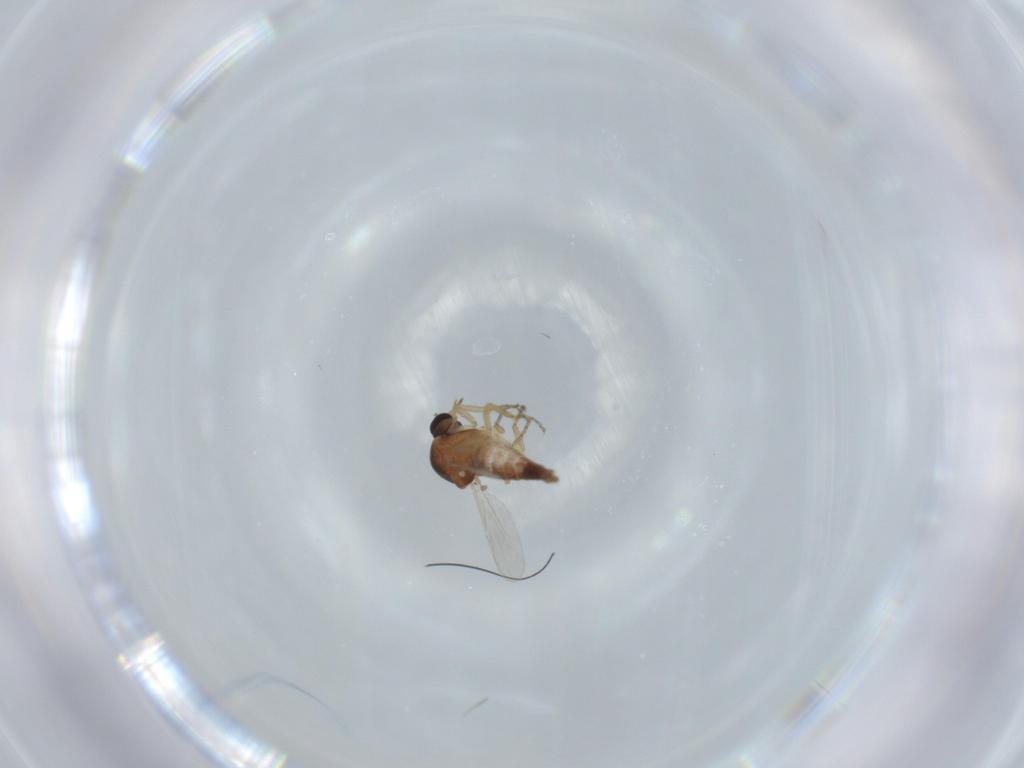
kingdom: Animalia
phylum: Arthropoda
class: Insecta
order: Diptera
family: Ceratopogonidae
